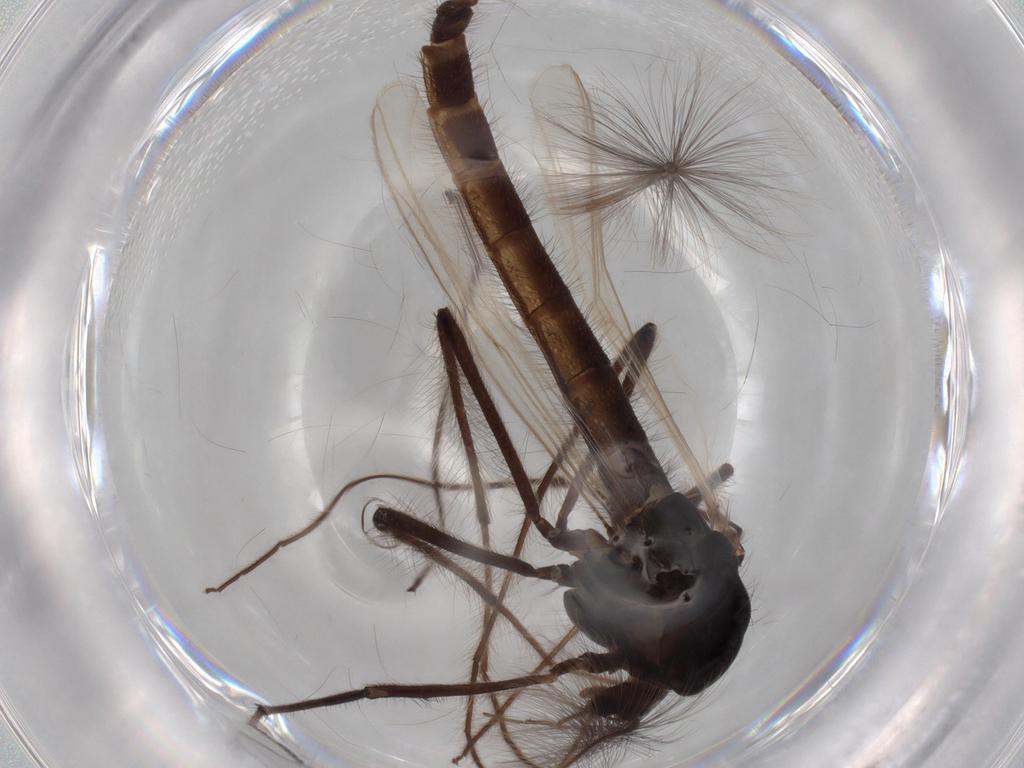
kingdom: Animalia
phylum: Arthropoda
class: Insecta
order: Diptera
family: Chironomidae
